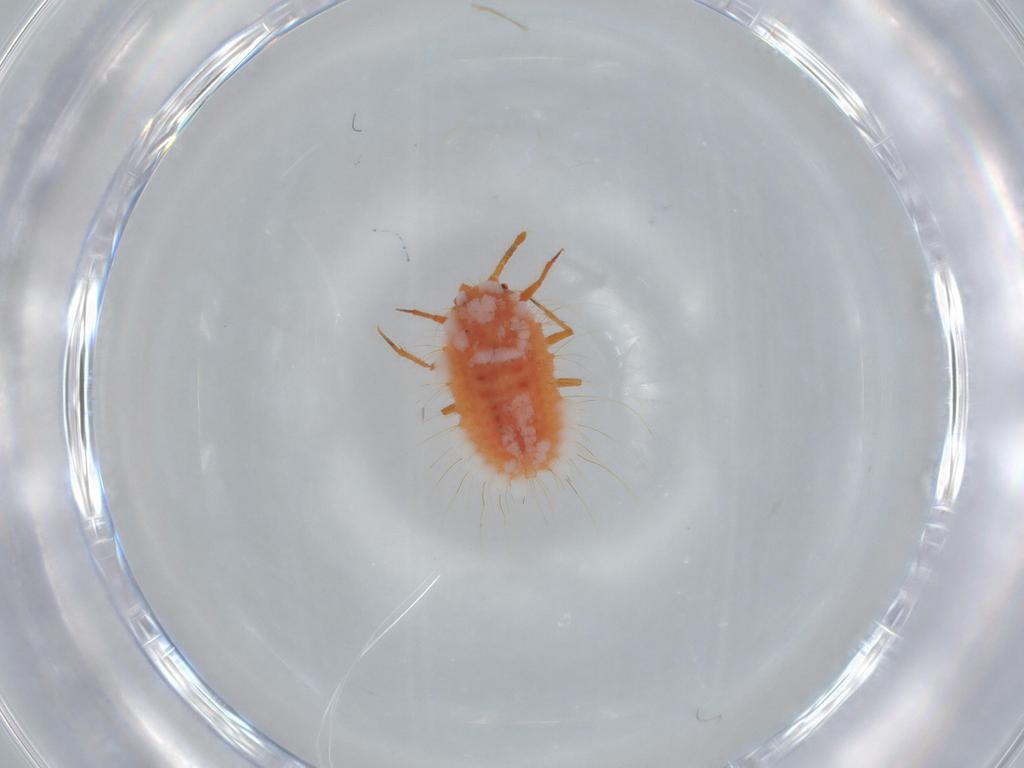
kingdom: Animalia
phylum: Arthropoda
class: Insecta
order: Hemiptera
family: Coccoidea_incertae_sedis
